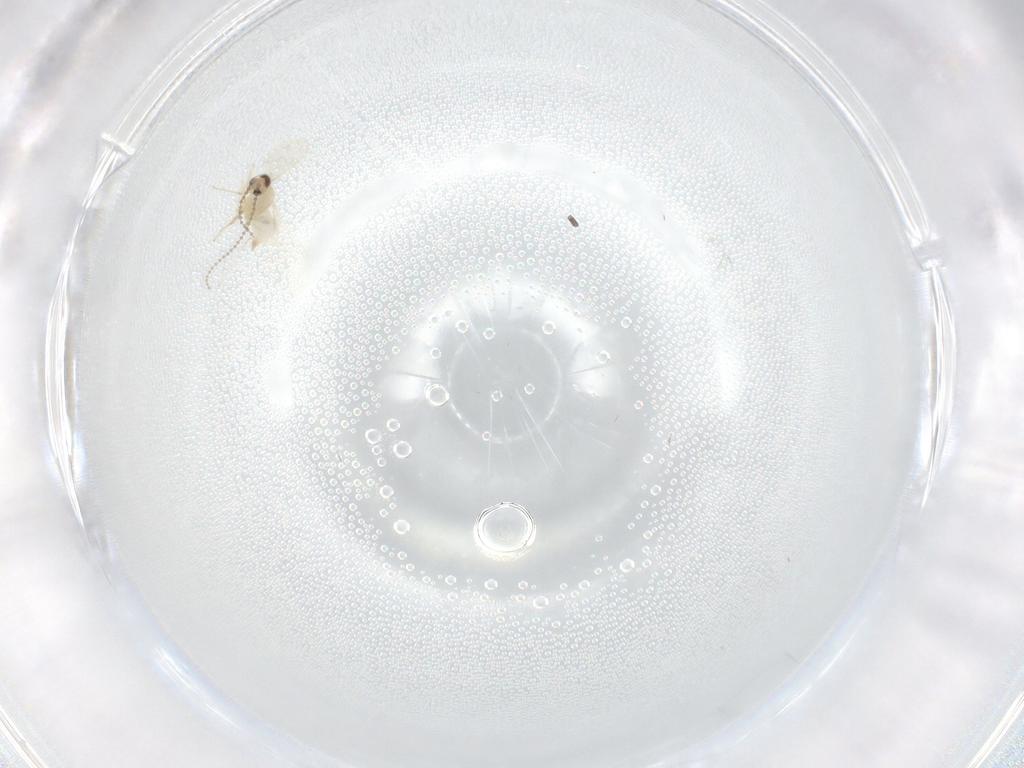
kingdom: Animalia
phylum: Arthropoda
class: Insecta
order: Diptera
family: Cecidomyiidae
